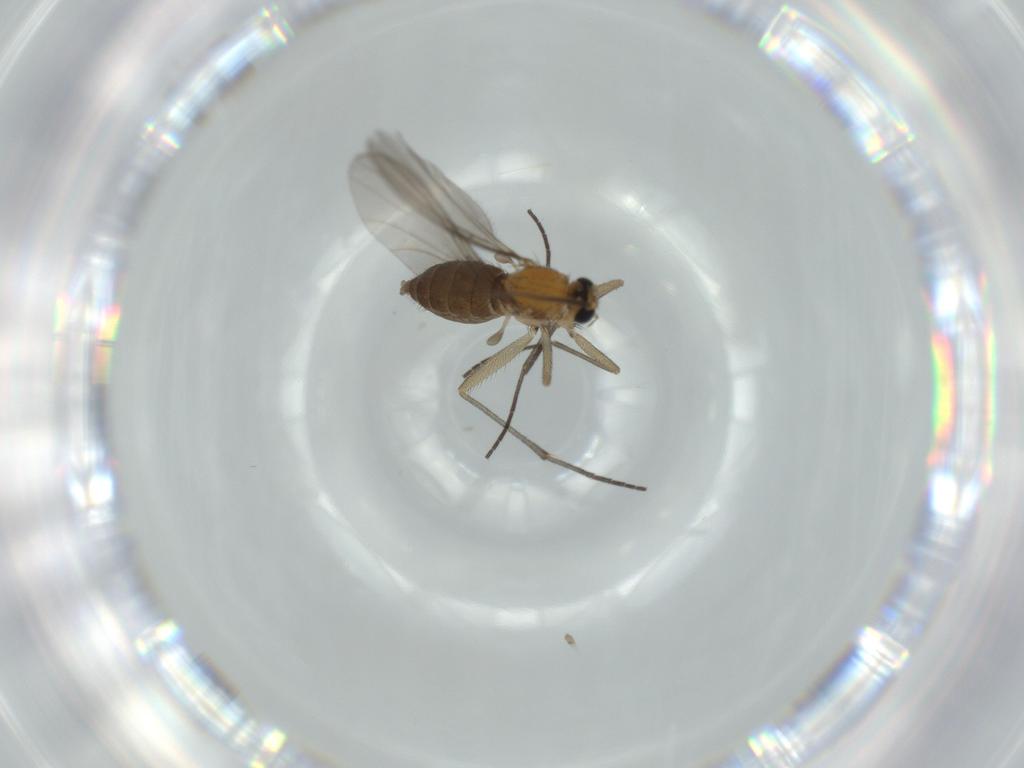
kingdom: Animalia
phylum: Arthropoda
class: Insecta
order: Diptera
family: Sciaridae
